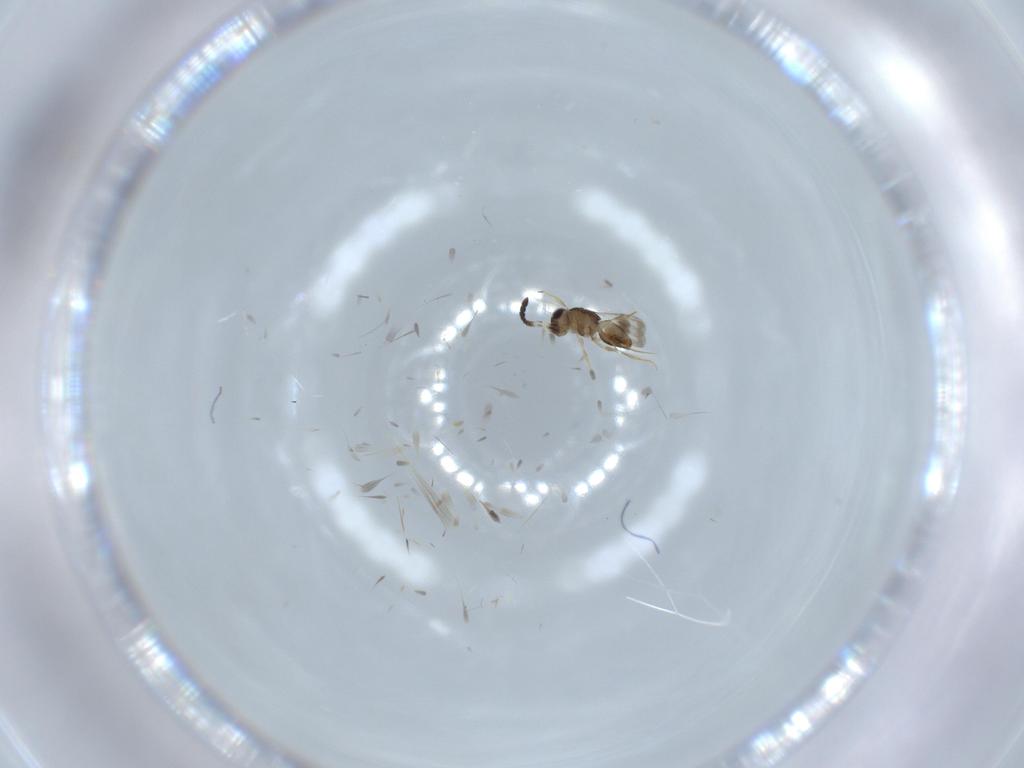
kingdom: Animalia
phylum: Arthropoda
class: Insecta
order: Hymenoptera
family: Ceraphronidae
